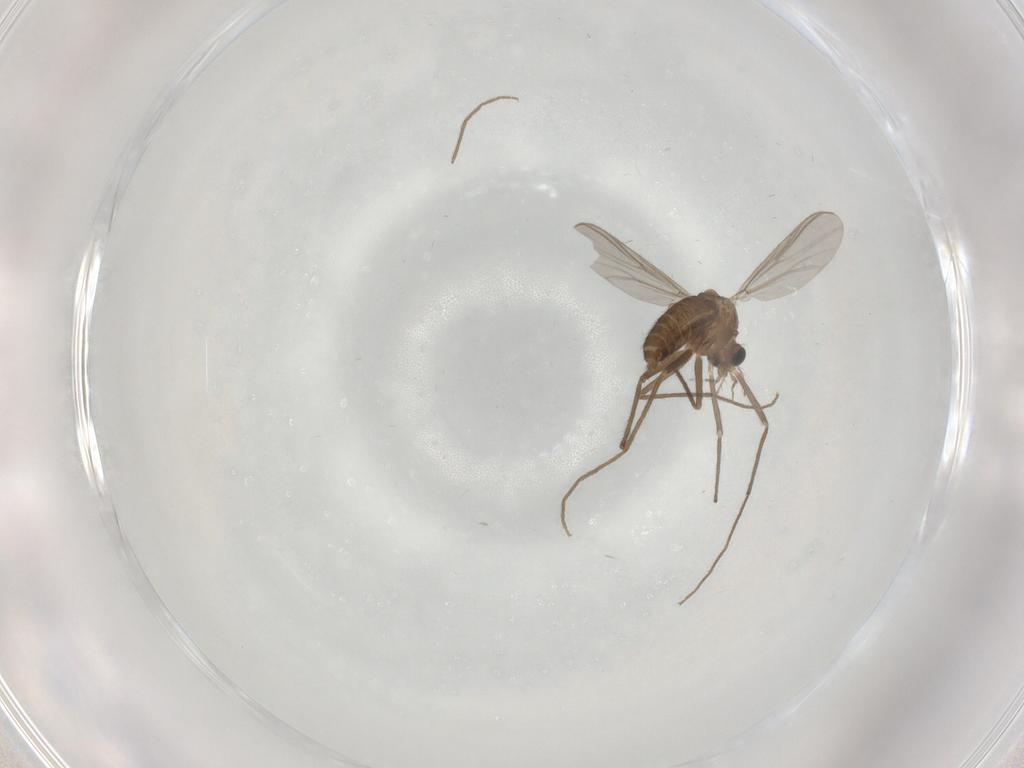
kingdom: Animalia
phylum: Arthropoda
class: Insecta
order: Diptera
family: Chironomidae
